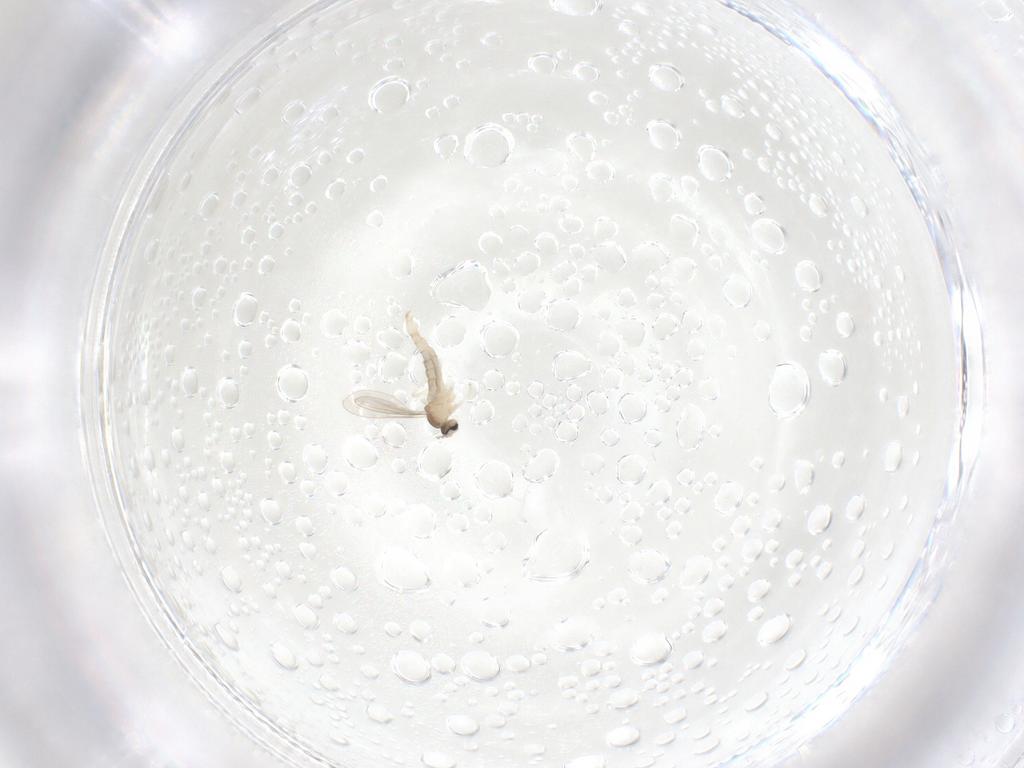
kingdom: Animalia
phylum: Arthropoda
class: Insecta
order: Diptera
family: Cecidomyiidae
